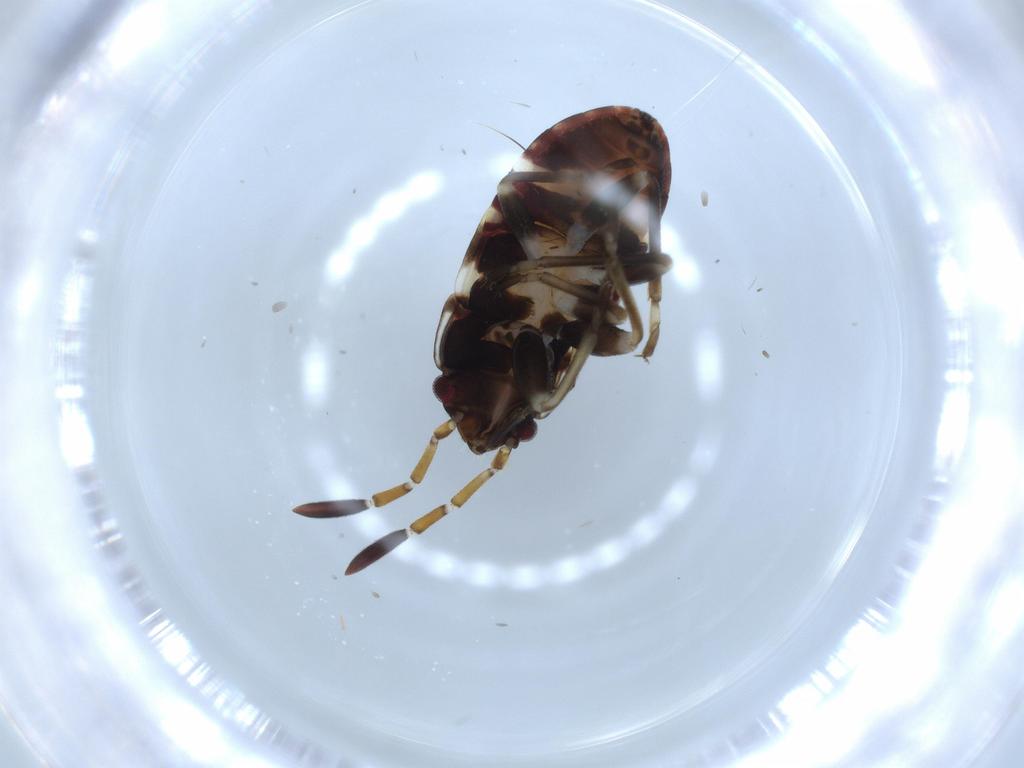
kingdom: Animalia
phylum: Arthropoda
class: Insecta
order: Hemiptera
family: Rhyparochromidae
